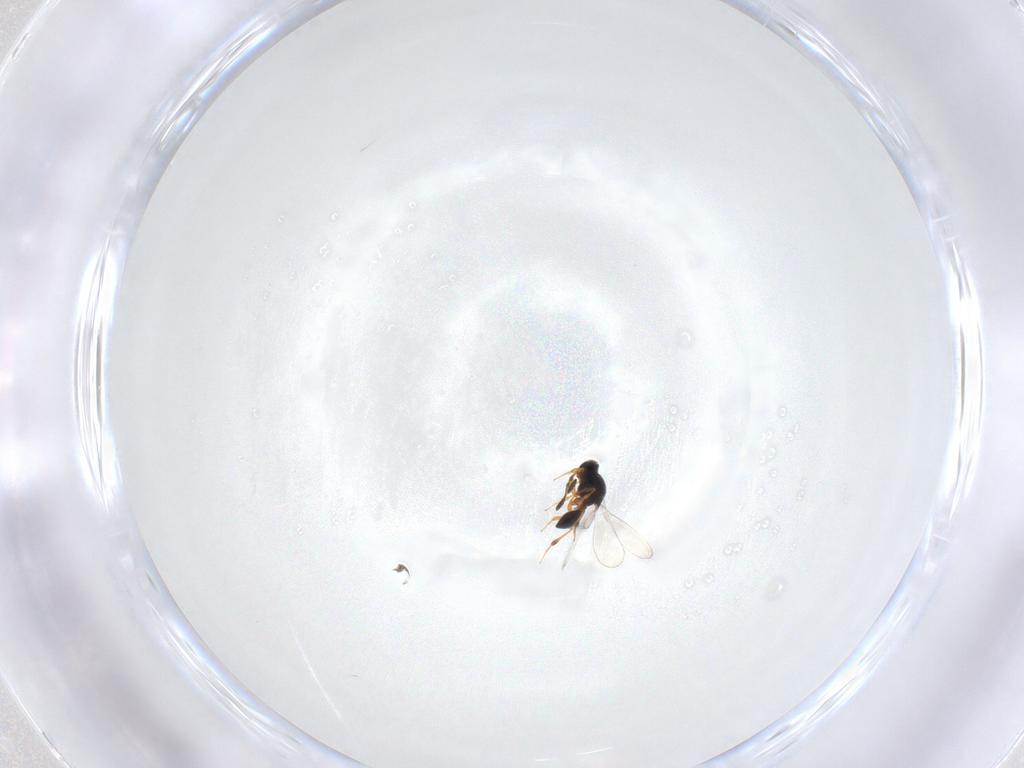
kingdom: Animalia
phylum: Arthropoda
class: Insecta
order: Hymenoptera
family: Platygastridae
